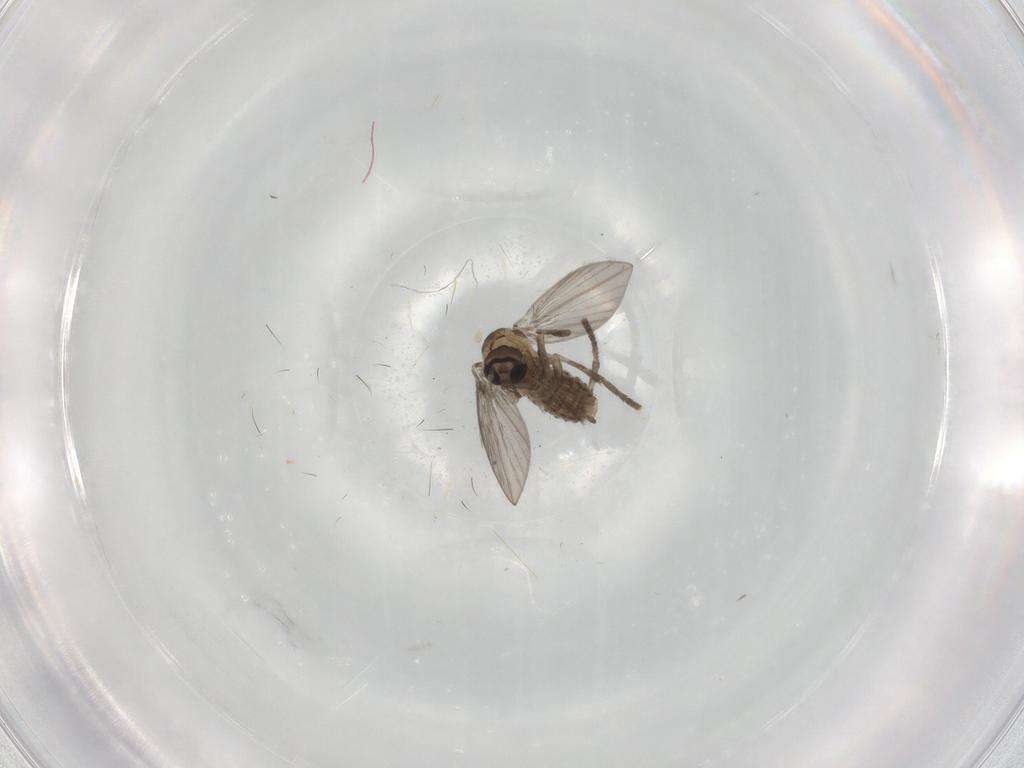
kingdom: Animalia
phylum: Arthropoda
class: Insecta
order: Diptera
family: Psychodidae
